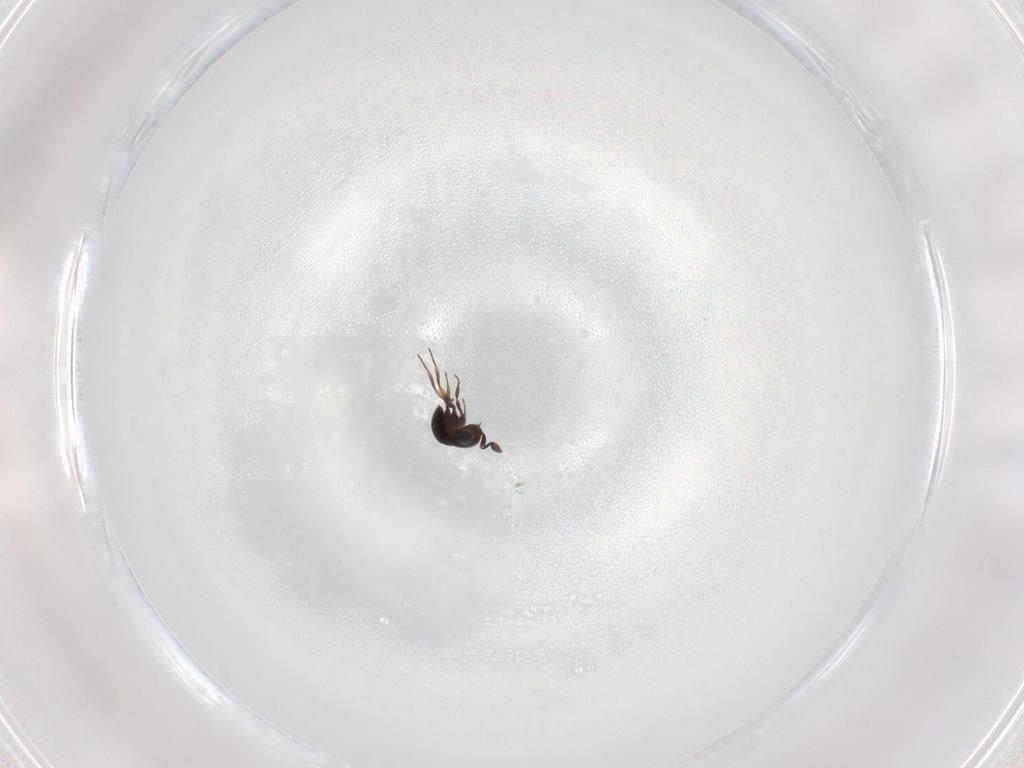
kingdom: Animalia
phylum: Arthropoda
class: Insecta
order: Hymenoptera
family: Scelionidae
